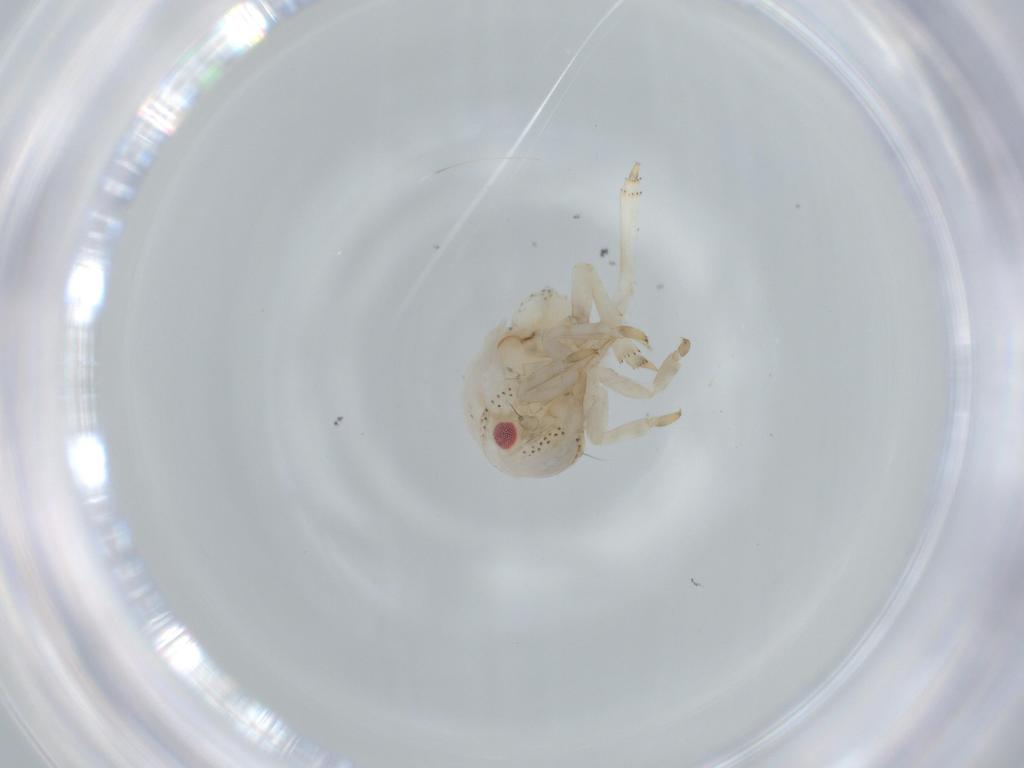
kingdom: Animalia
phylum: Arthropoda
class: Insecta
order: Hemiptera
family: Acanaloniidae
